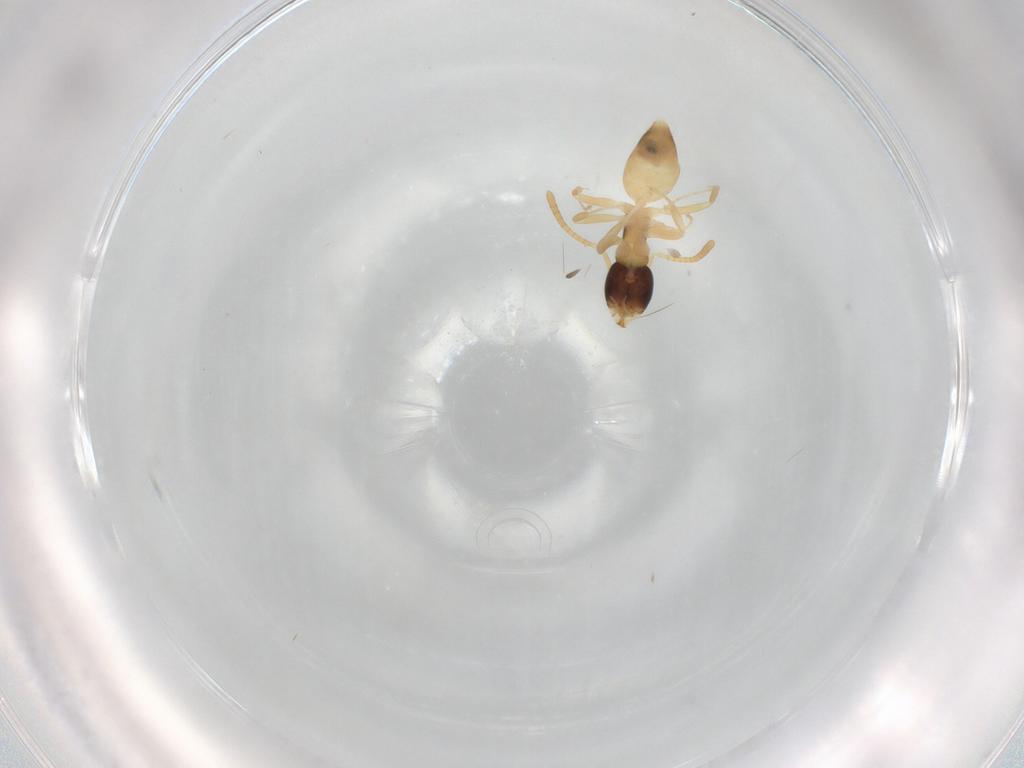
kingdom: Animalia
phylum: Arthropoda
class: Insecta
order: Hymenoptera
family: Formicidae
